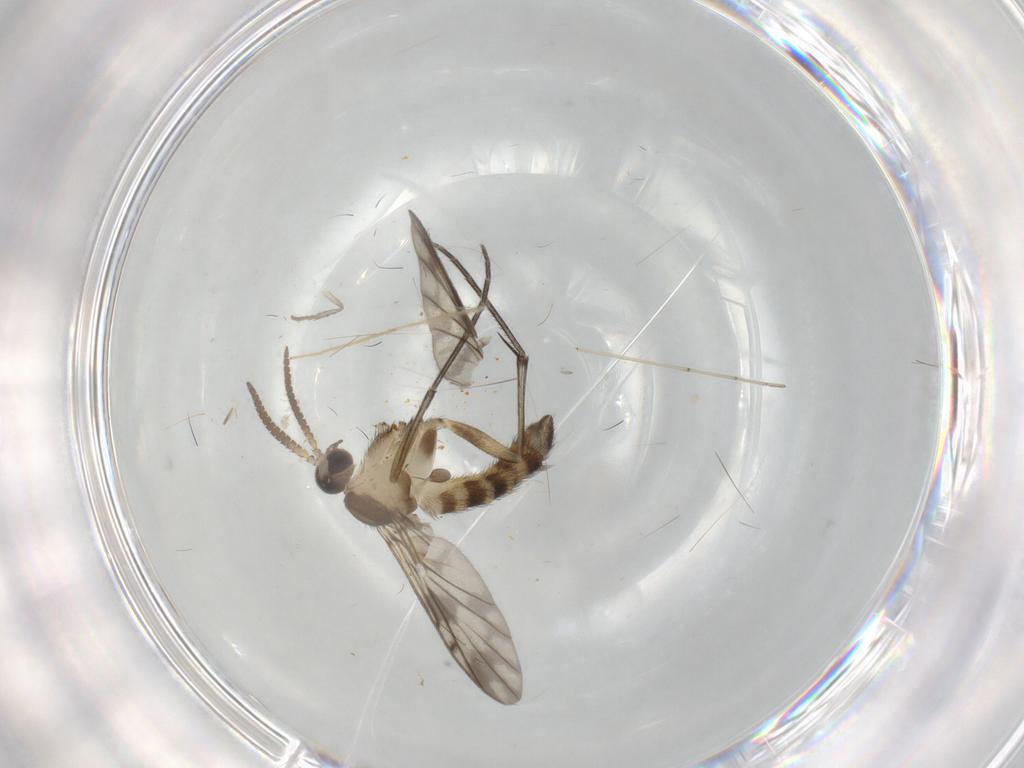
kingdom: Animalia
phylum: Arthropoda
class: Insecta
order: Diptera
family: Keroplatidae
